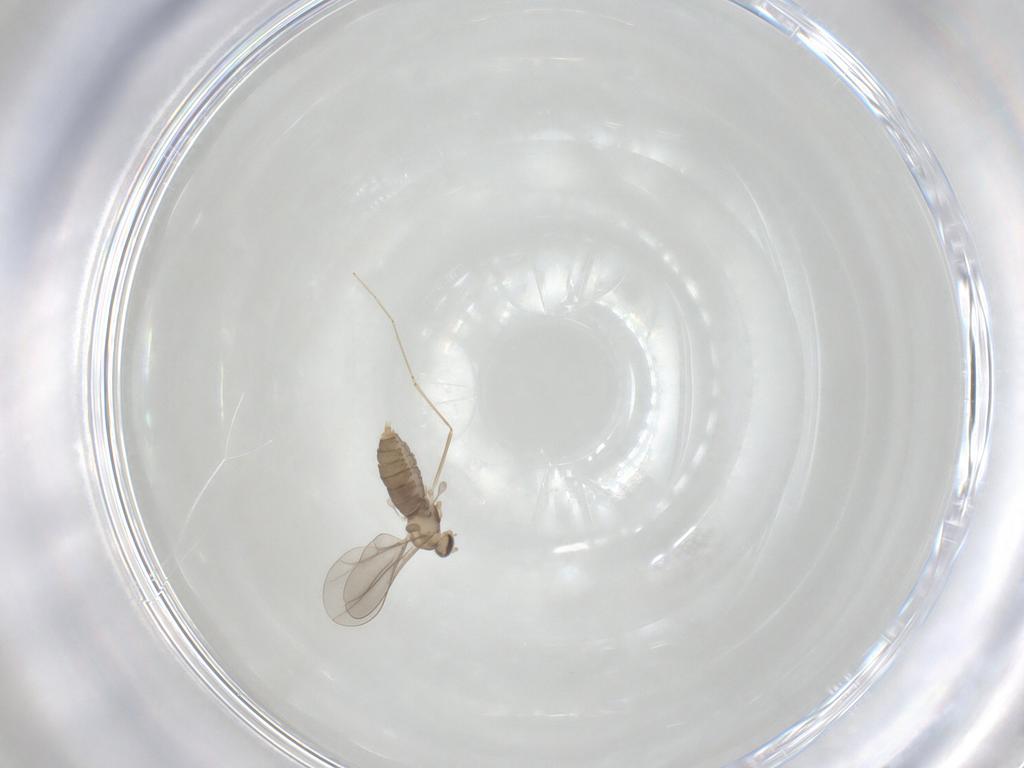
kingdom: Animalia
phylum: Arthropoda
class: Insecta
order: Diptera
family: Cecidomyiidae
